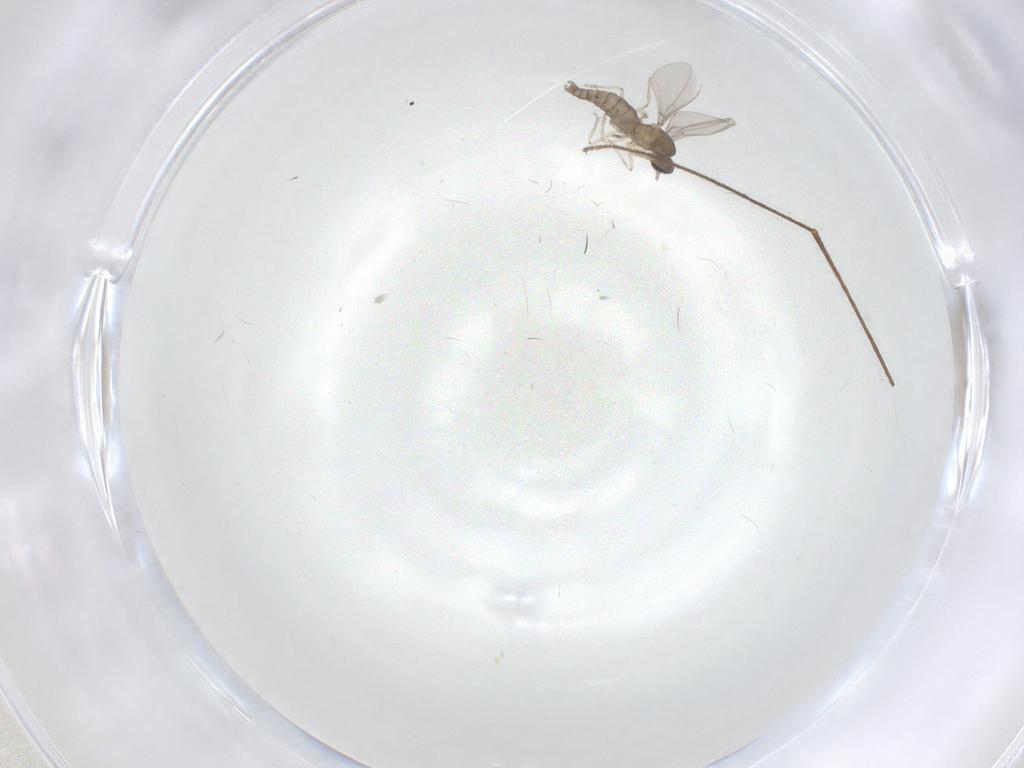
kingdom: Animalia
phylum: Arthropoda
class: Insecta
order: Diptera
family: Cecidomyiidae
